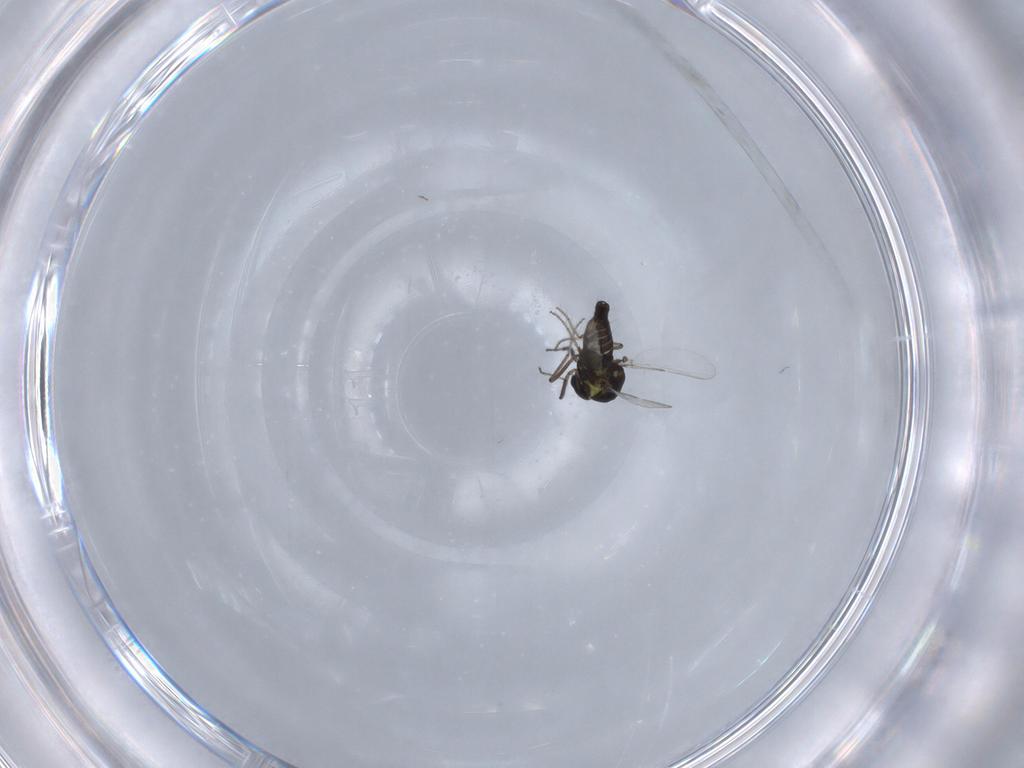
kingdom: Animalia
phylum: Arthropoda
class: Insecta
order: Diptera
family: Ceratopogonidae
